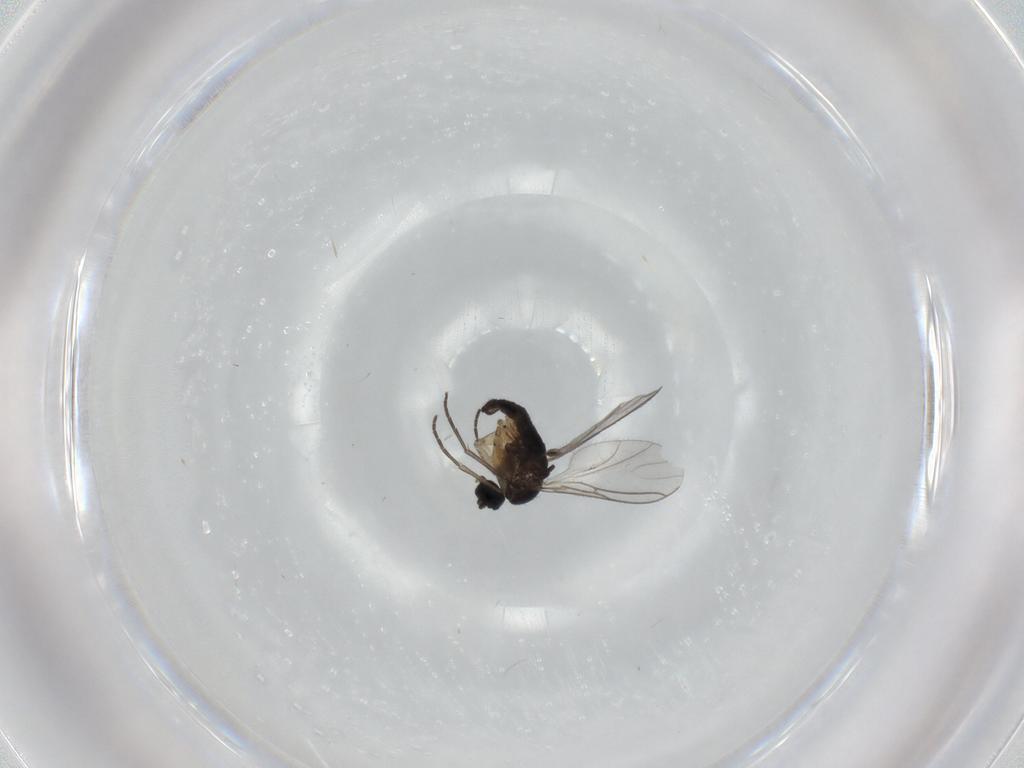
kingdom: Animalia
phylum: Arthropoda
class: Insecta
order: Diptera
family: Sciaridae
